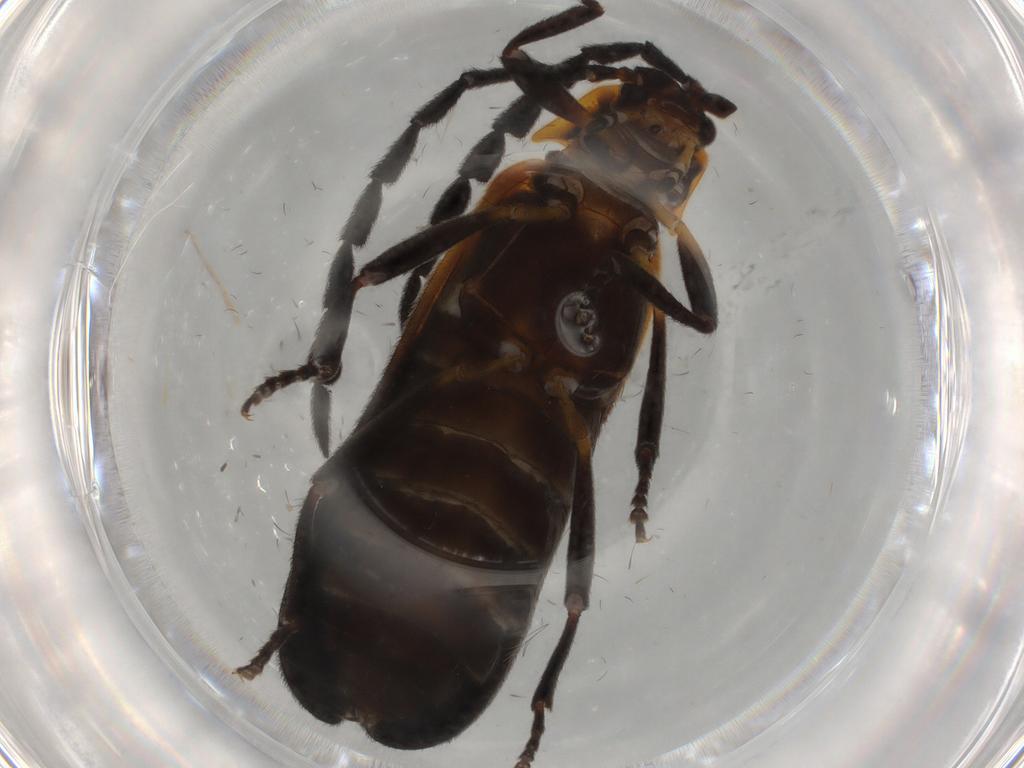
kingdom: Animalia
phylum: Arthropoda
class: Insecta
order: Coleoptera
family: Lycidae
